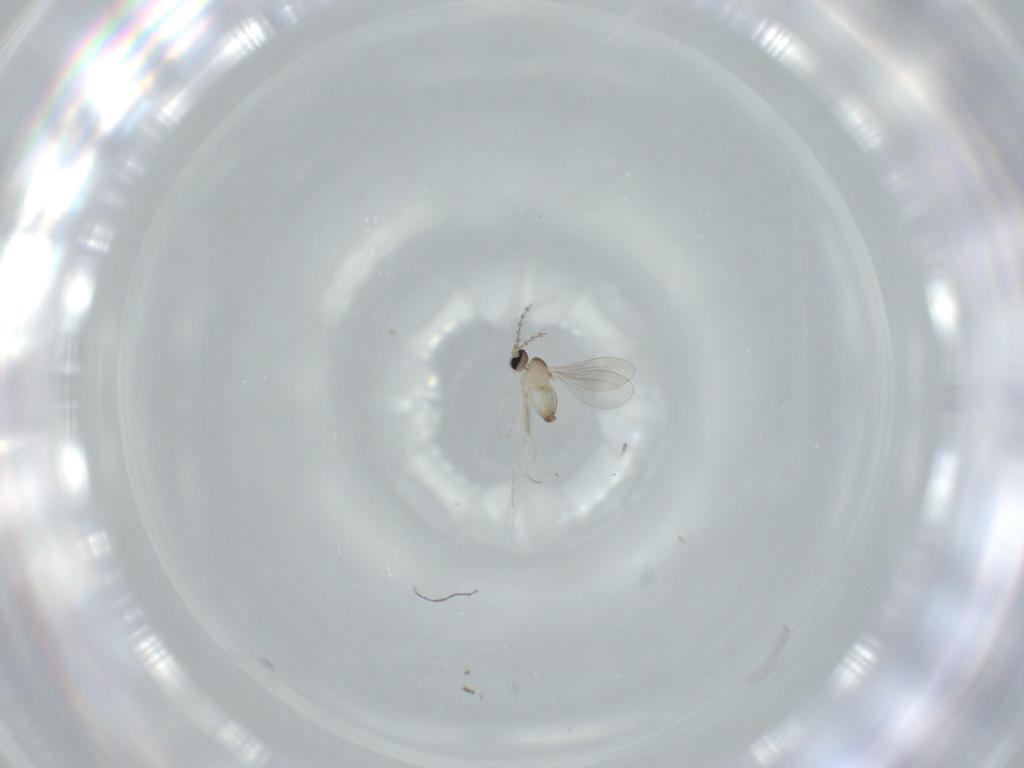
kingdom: Animalia
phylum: Arthropoda
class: Insecta
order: Diptera
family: Cecidomyiidae
